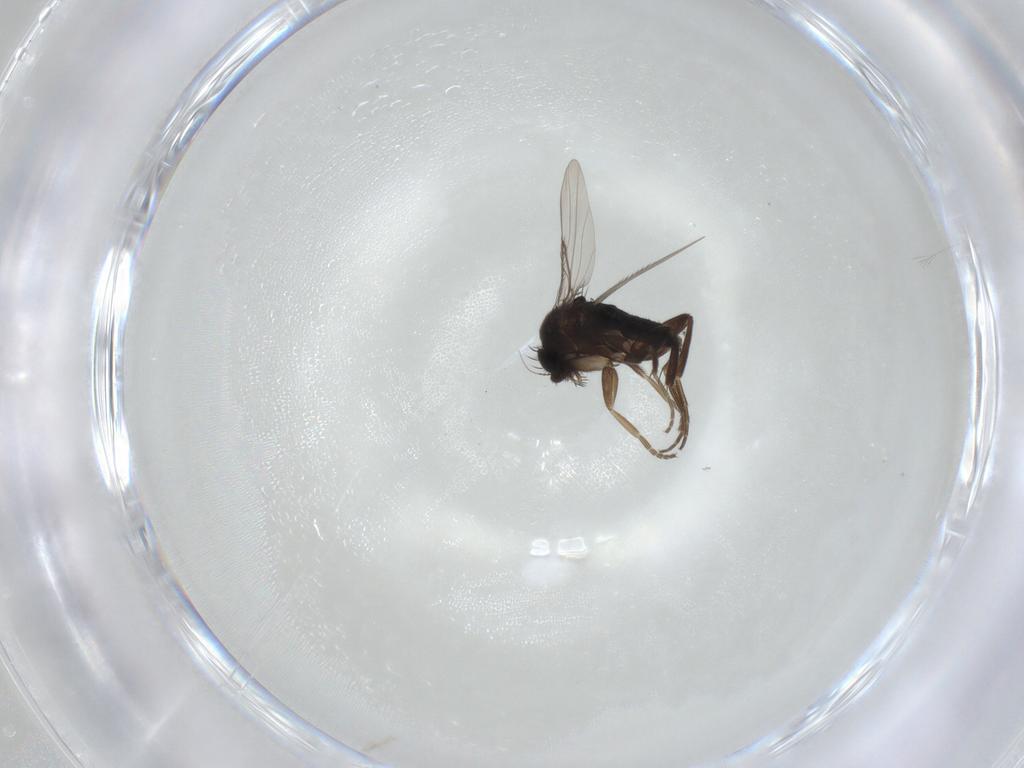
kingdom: Animalia
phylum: Arthropoda
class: Insecta
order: Diptera
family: Phoridae
